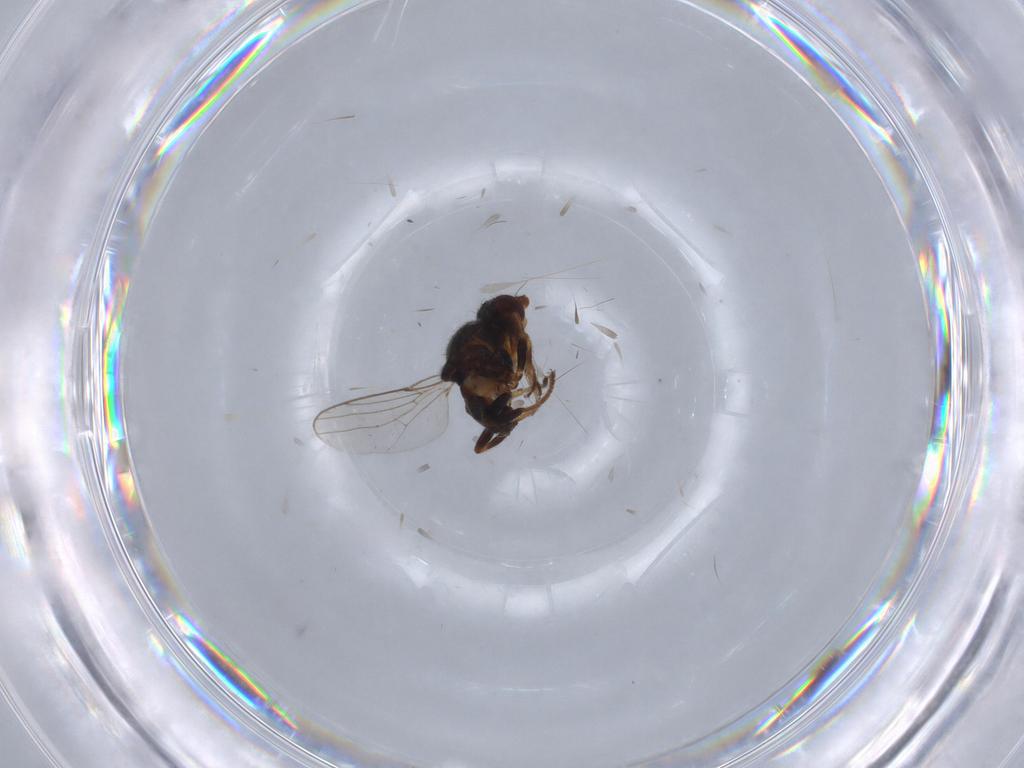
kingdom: Animalia
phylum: Arthropoda
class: Insecta
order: Diptera
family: Chloropidae
